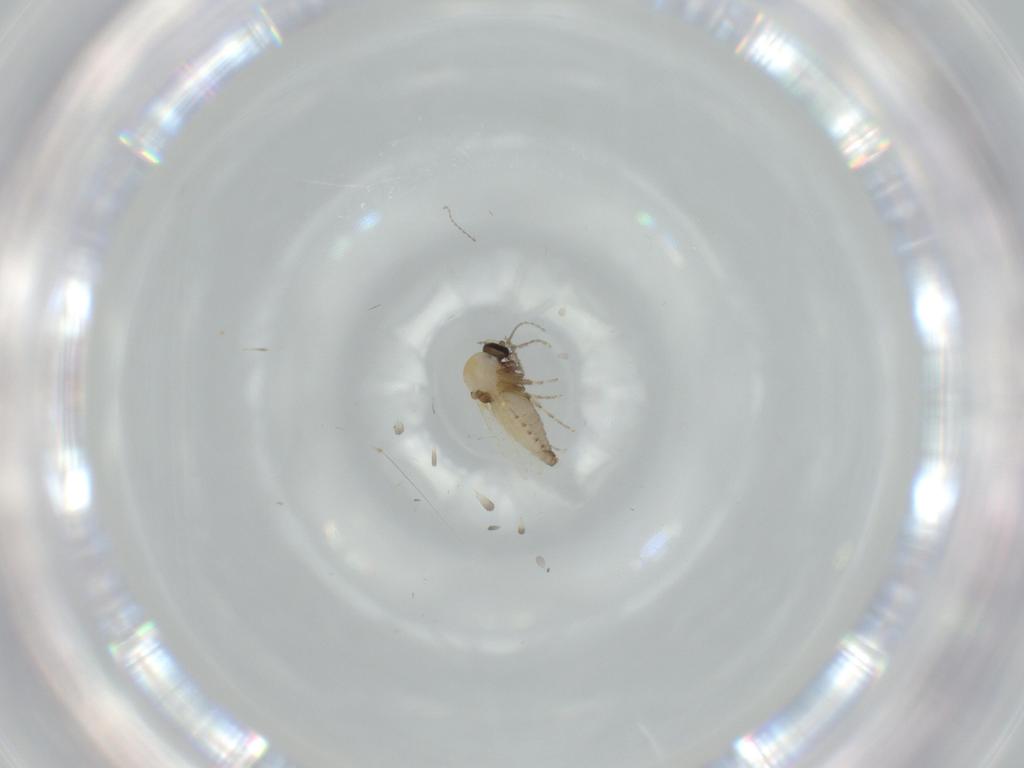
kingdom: Animalia
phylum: Arthropoda
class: Insecta
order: Diptera
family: Ceratopogonidae
